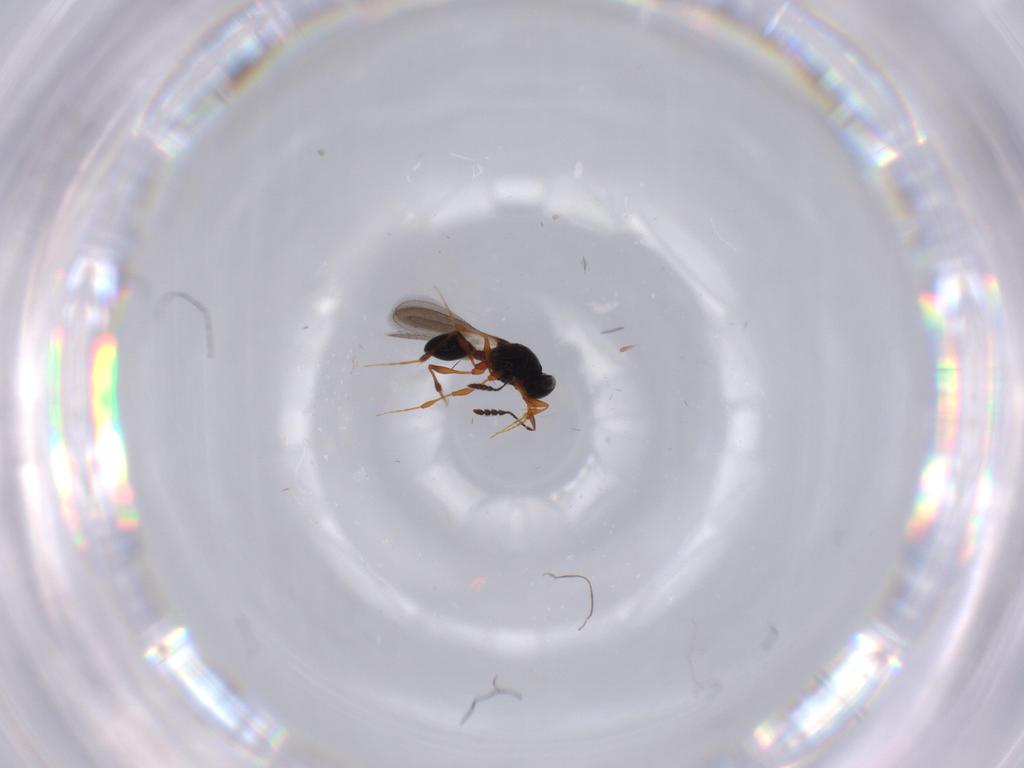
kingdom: Animalia
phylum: Arthropoda
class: Insecta
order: Hymenoptera
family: Platygastridae
